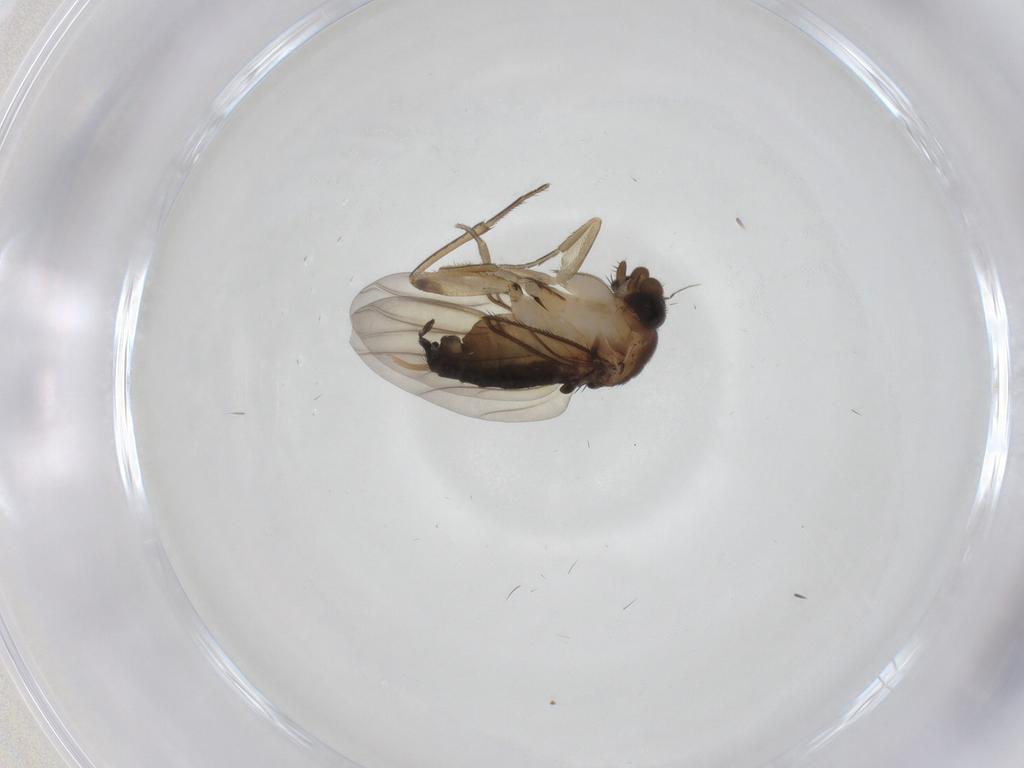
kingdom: Animalia
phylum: Arthropoda
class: Insecta
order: Diptera
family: Phoridae
